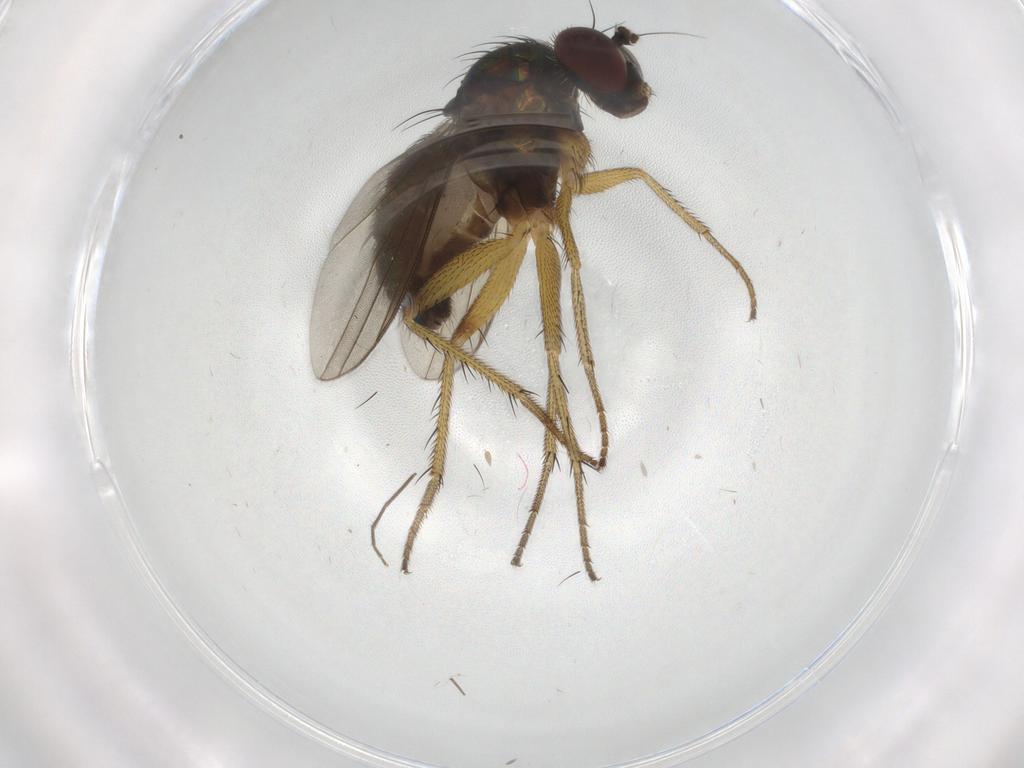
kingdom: Animalia
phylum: Arthropoda
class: Insecta
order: Diptera
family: Dolichopodidae
